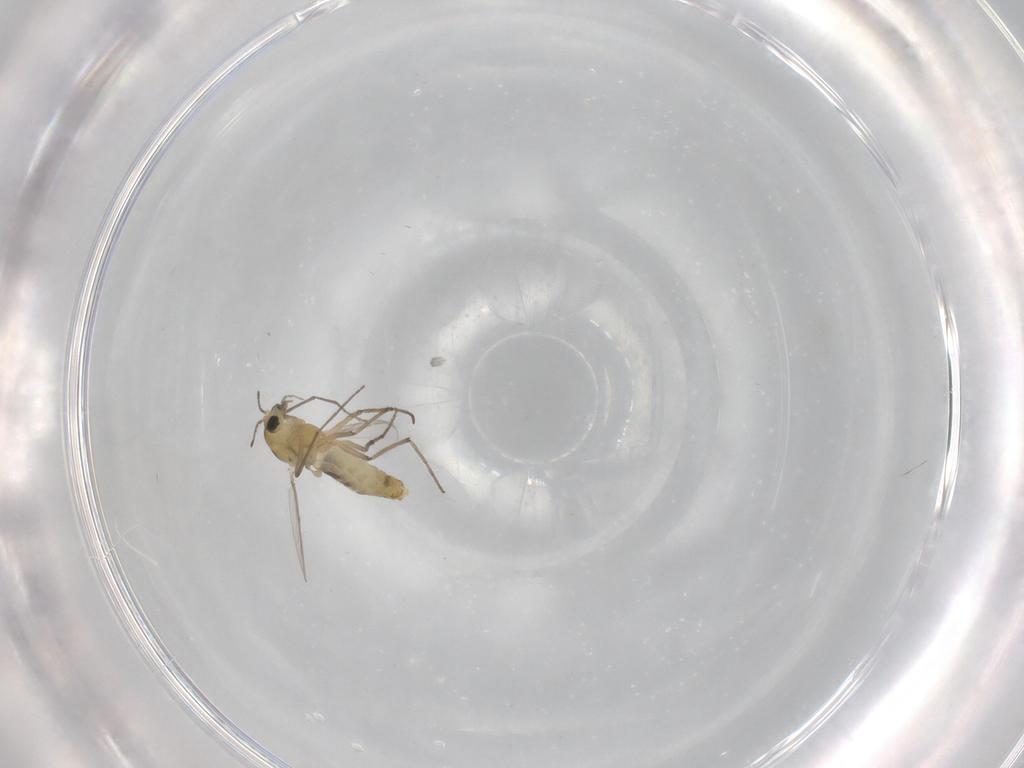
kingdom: Animalia
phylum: Arthropoda
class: Insecta
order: Diptera
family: Chironomidae
